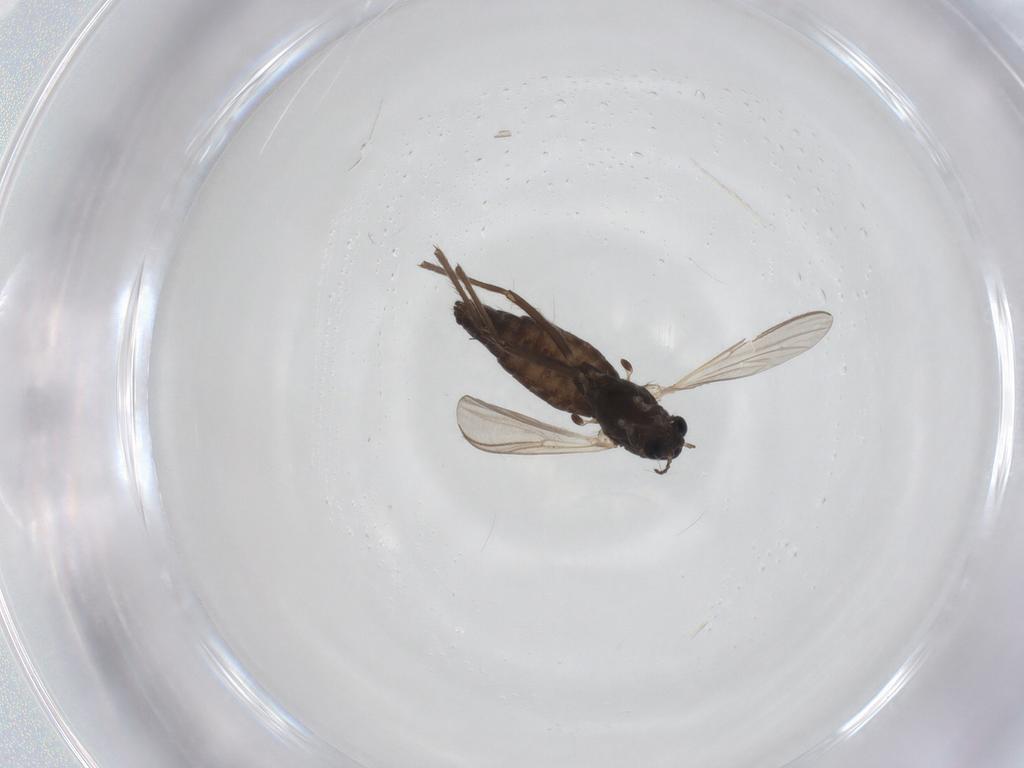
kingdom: Animalia
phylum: Arthropoda
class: Insecta
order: Diptera
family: Chironomidae
